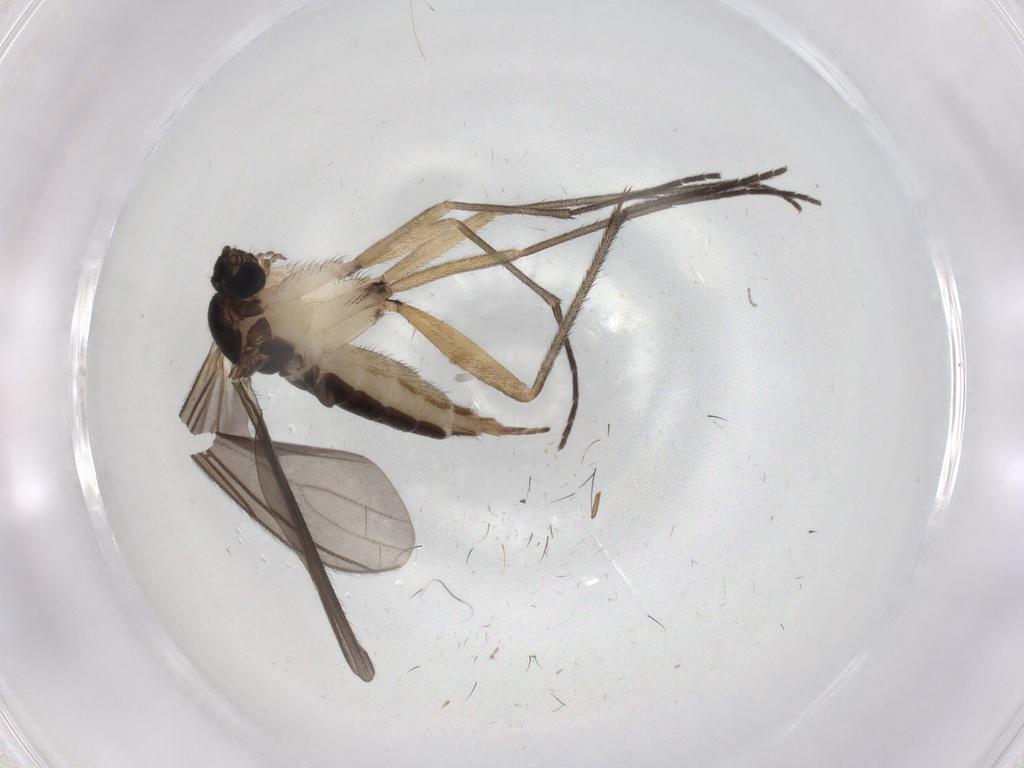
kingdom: Animalia
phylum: Arthropoda
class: Insecta
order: Diptera
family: Sciaridae
